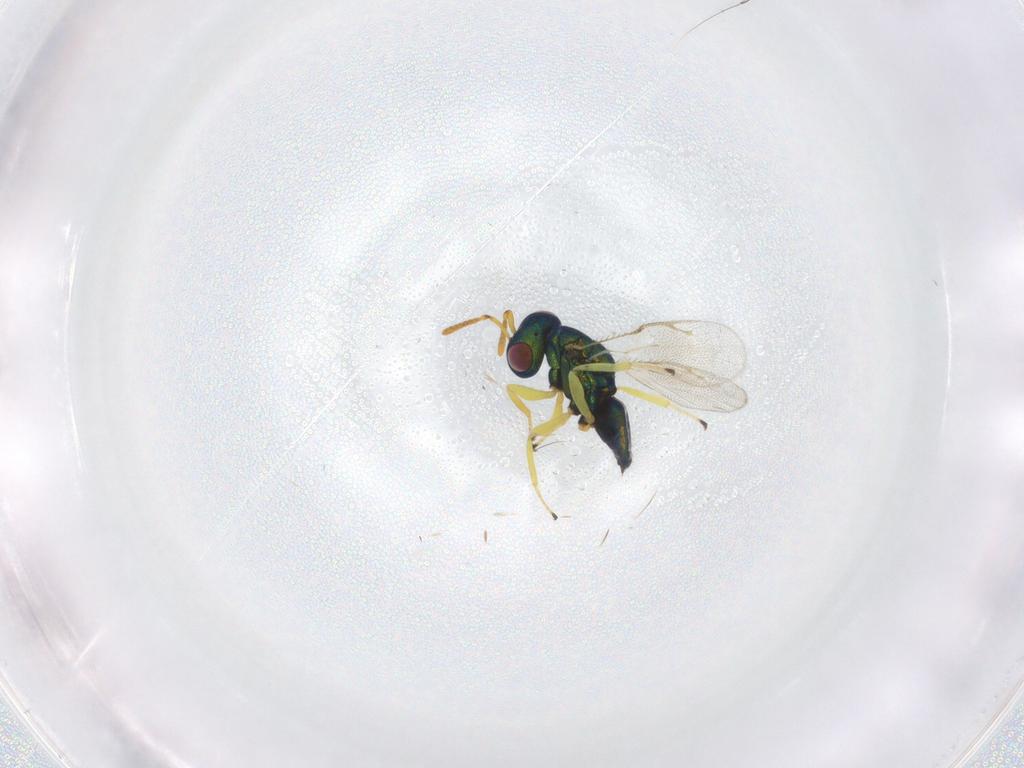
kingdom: Animalia
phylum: Arthropoda
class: Insecta
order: Hymenoptera
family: Pteromalidae
